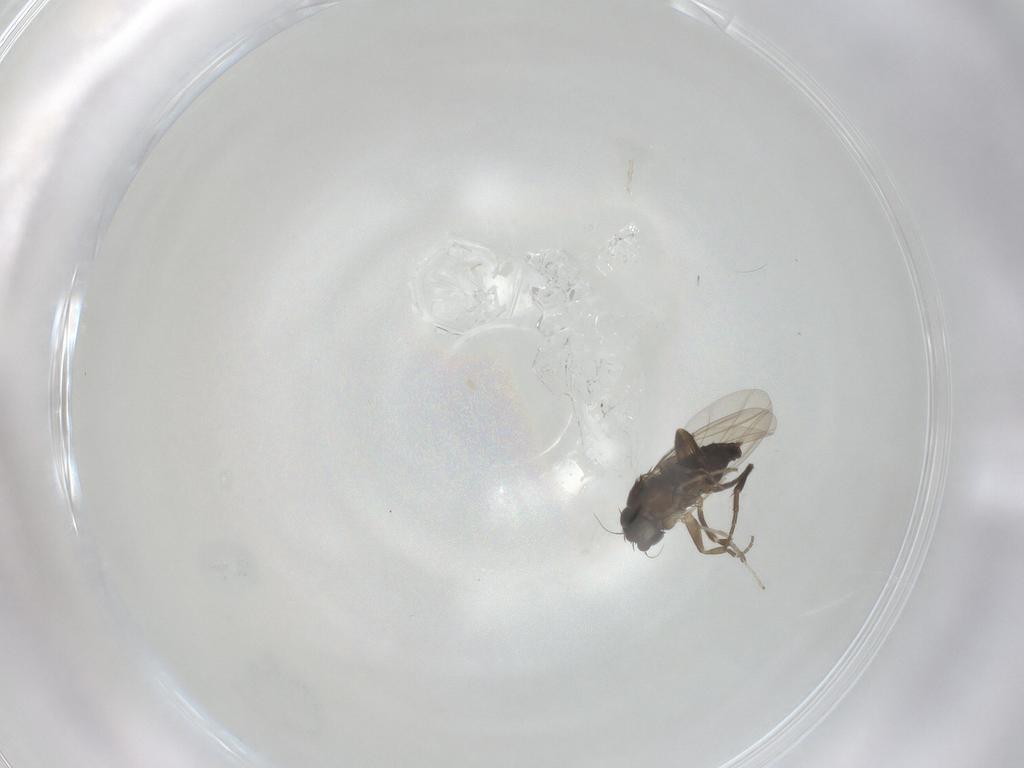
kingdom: Animalia
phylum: Arthropoda
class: Insecta
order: Diptera
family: Phoridae
